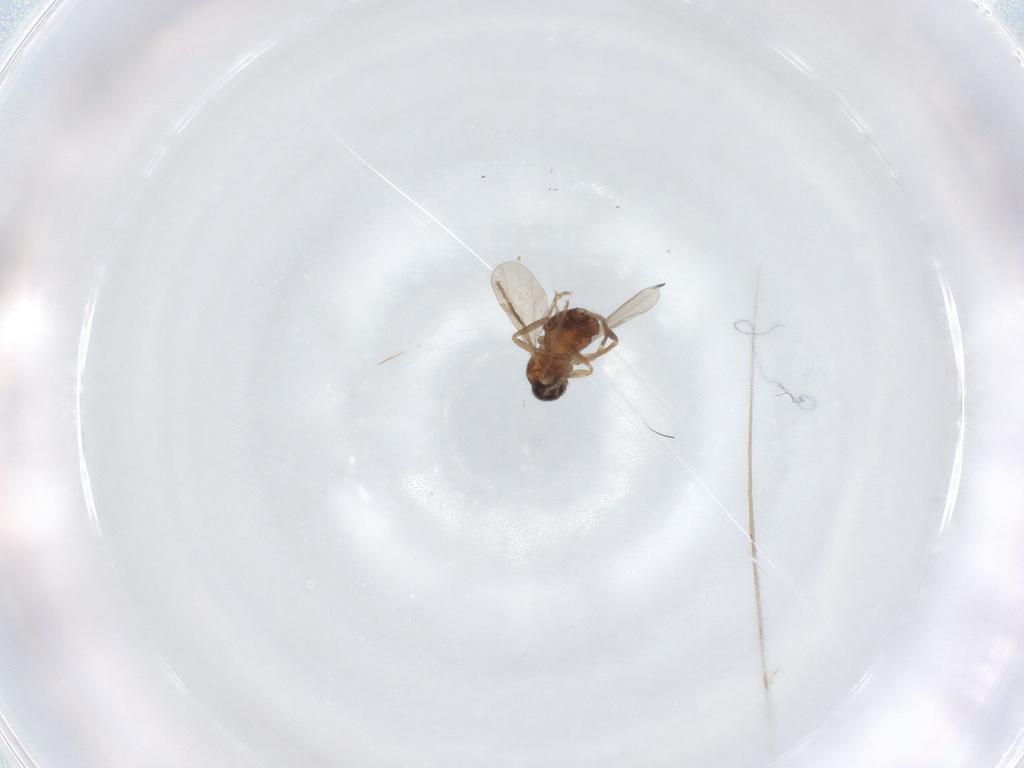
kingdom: Animalia
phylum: Arthropoda
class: Insecta
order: Diptera
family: Ceratopogonidae
